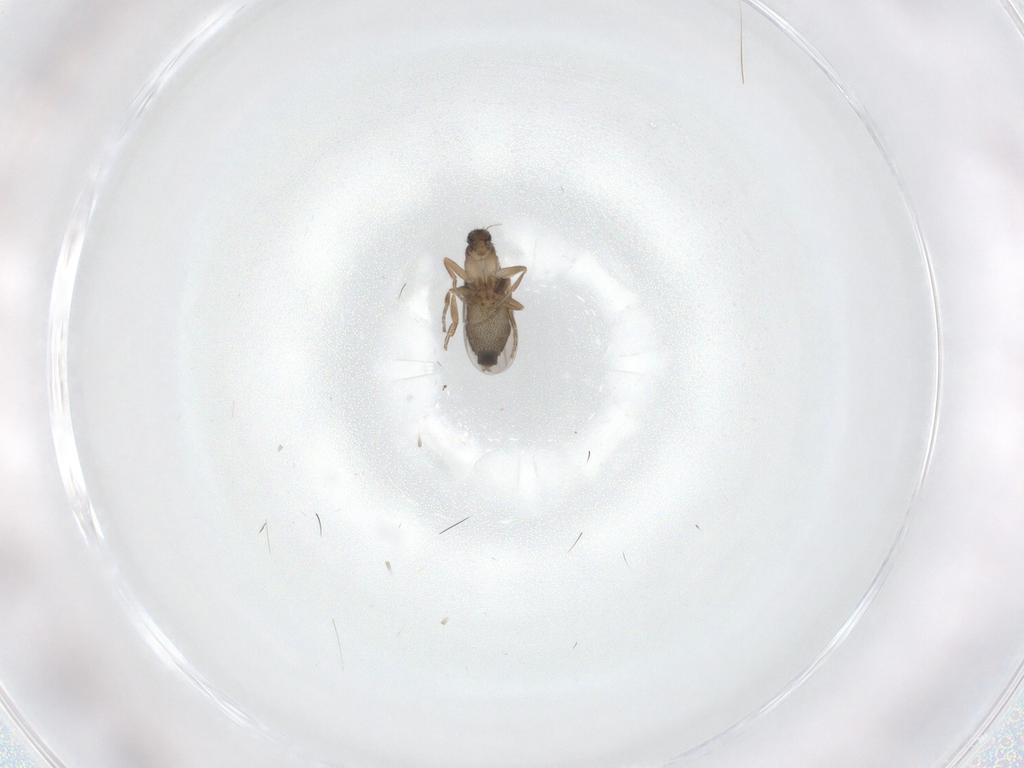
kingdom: Animalia
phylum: Arthropoda
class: Insecta
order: Diptera
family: Phoridae
